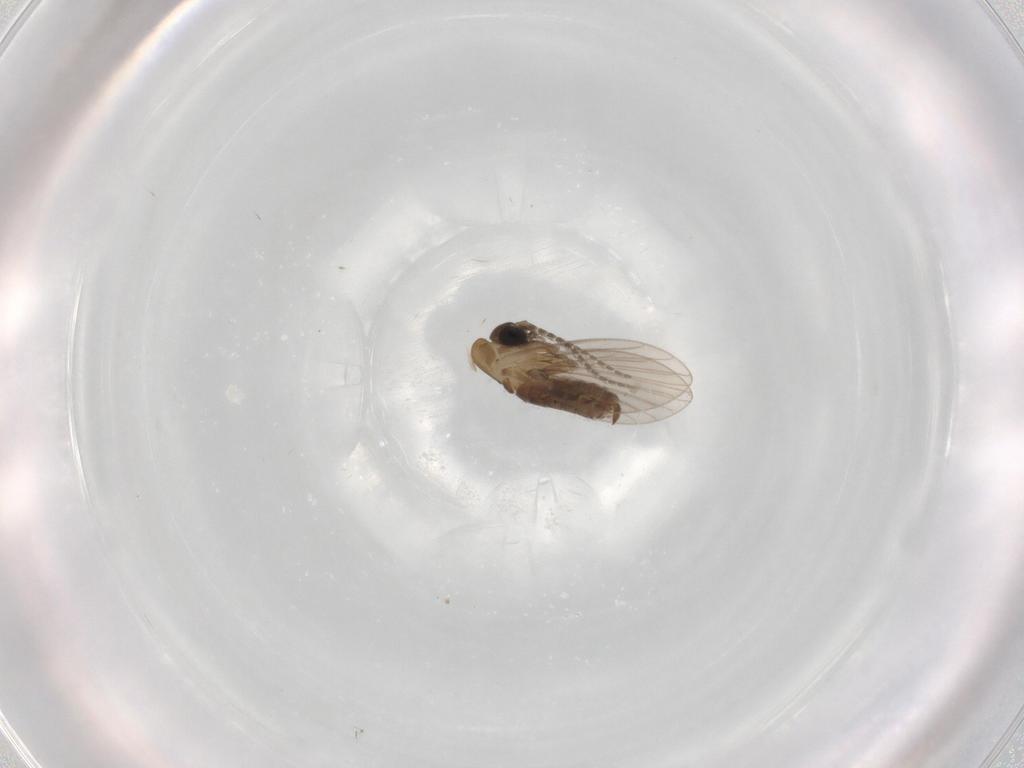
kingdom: Animalia
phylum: Arthropoda
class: Insecta
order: Diptera
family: Psychodidae
